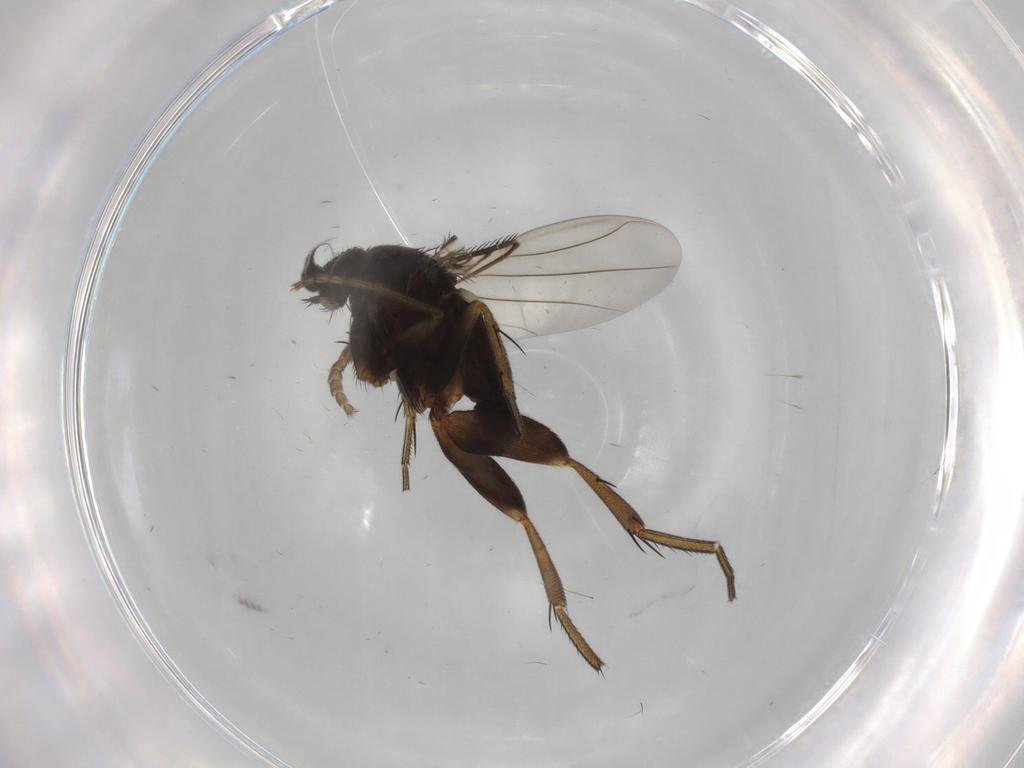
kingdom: Animalia
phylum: Arthropoda
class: Insecta
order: Diptera
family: Phoridae
